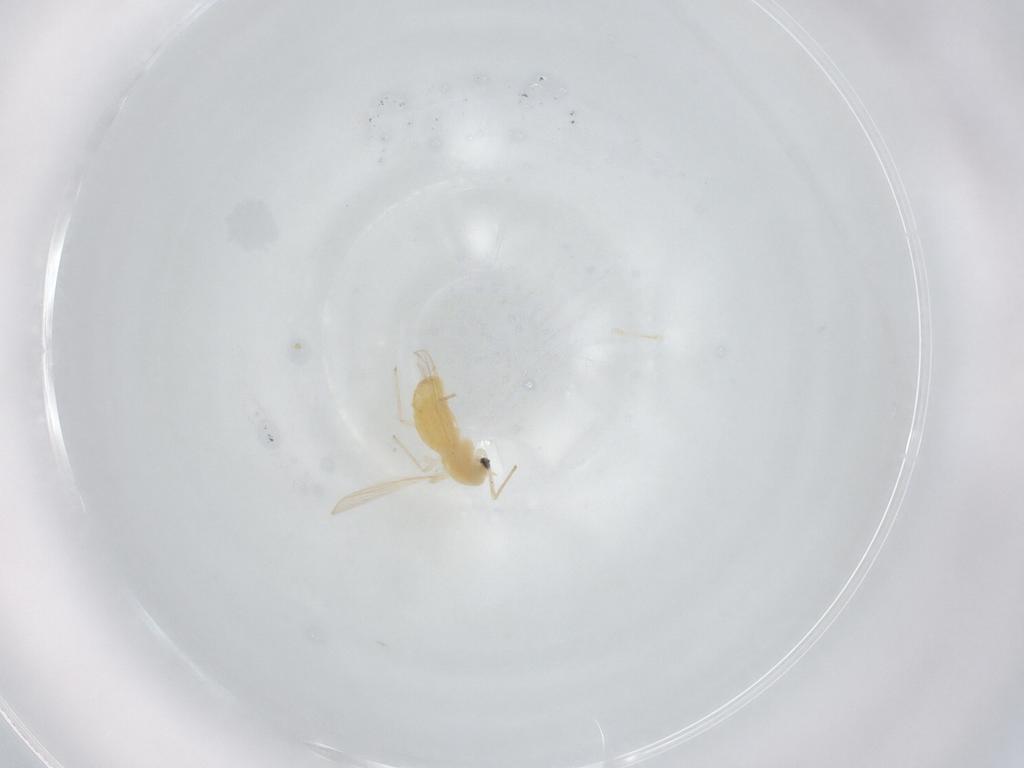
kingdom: Animalia
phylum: Arthropoda
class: Insecta
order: Diptera
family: Chironomidae
